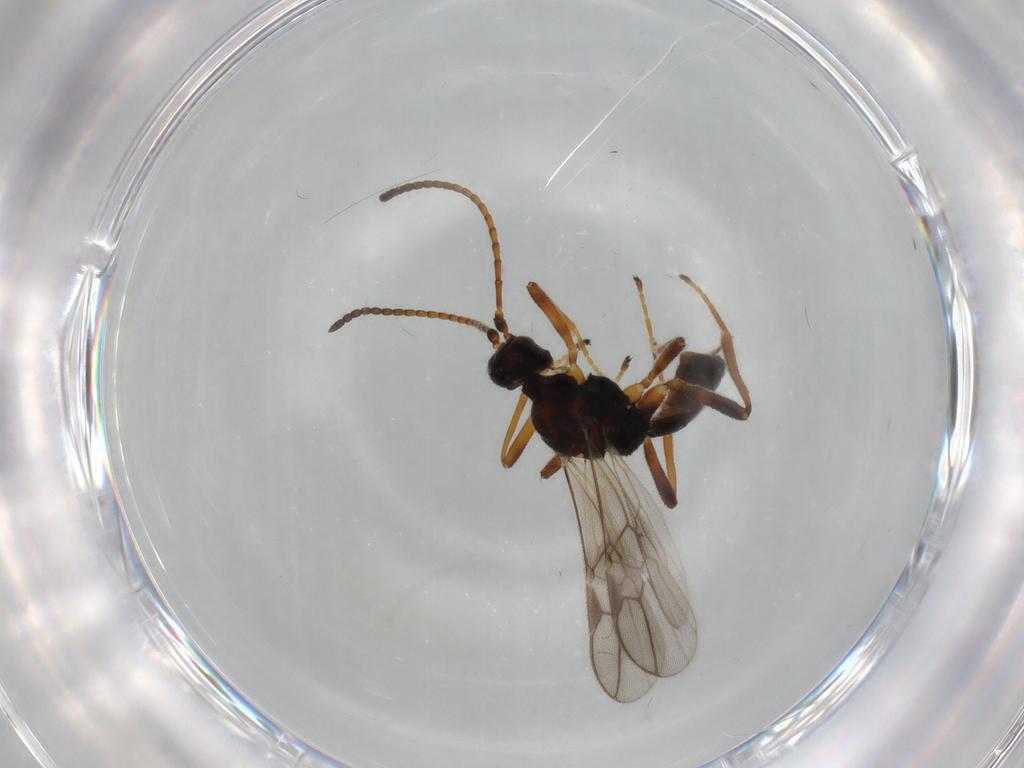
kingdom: Animalia
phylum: Arthropoda
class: Insecta
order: Hymenoptera
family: Braconidae
